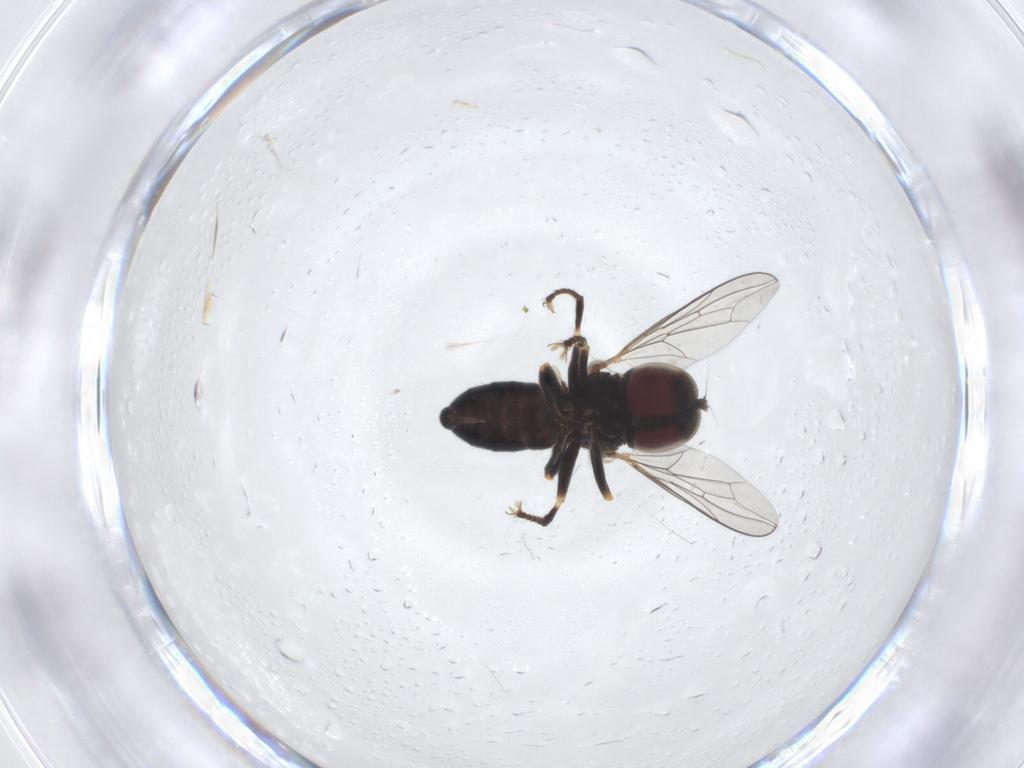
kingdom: Animalia
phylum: Arthropoda
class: Insecta
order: Diptera
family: Pipunculidae
